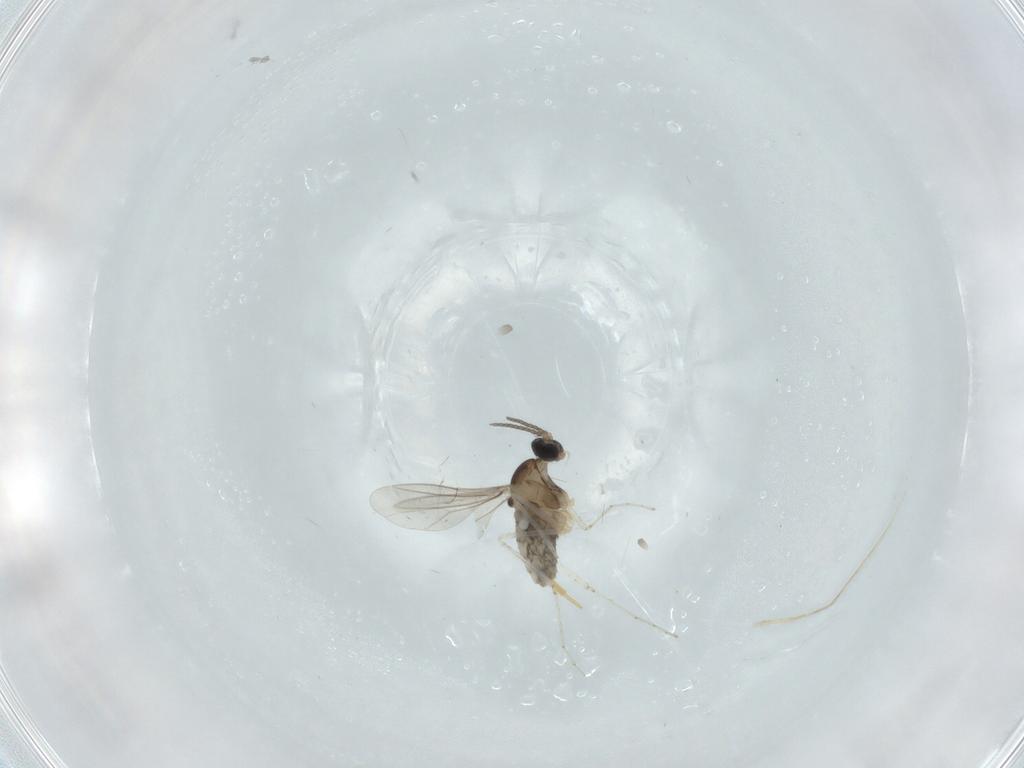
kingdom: Animalia
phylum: Arthropoda
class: Insecta
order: Diptera
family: Cecidomyiidae
